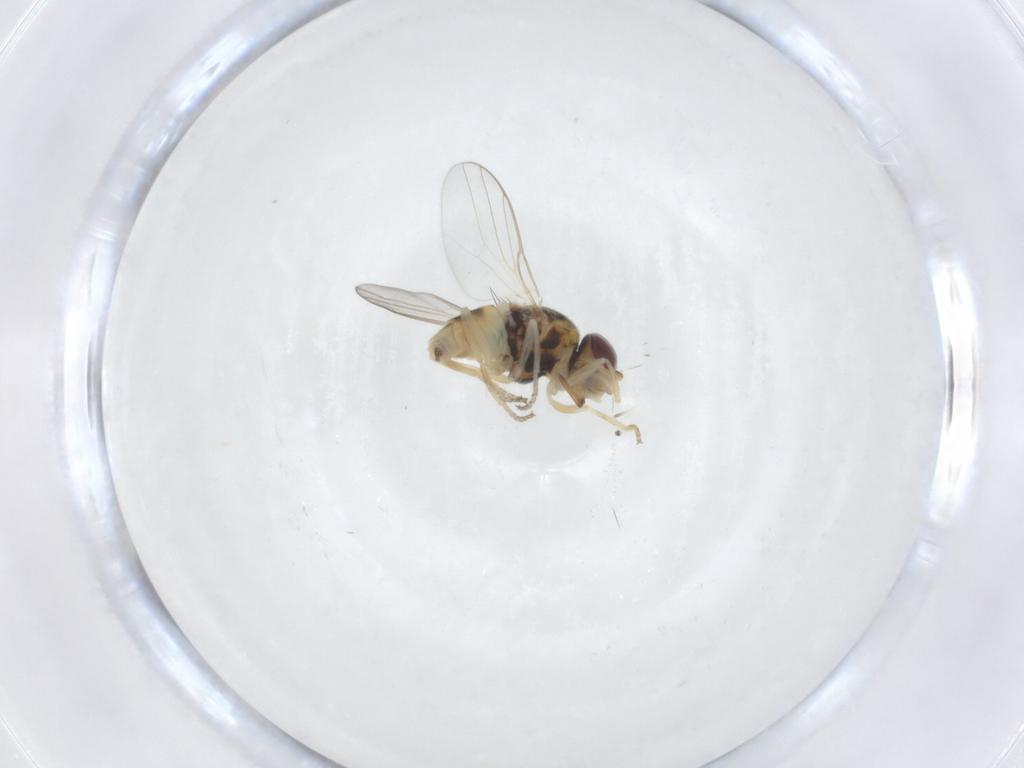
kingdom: Animalia
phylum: Arthropoda
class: Insecta
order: Diptera
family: Chloropidae
